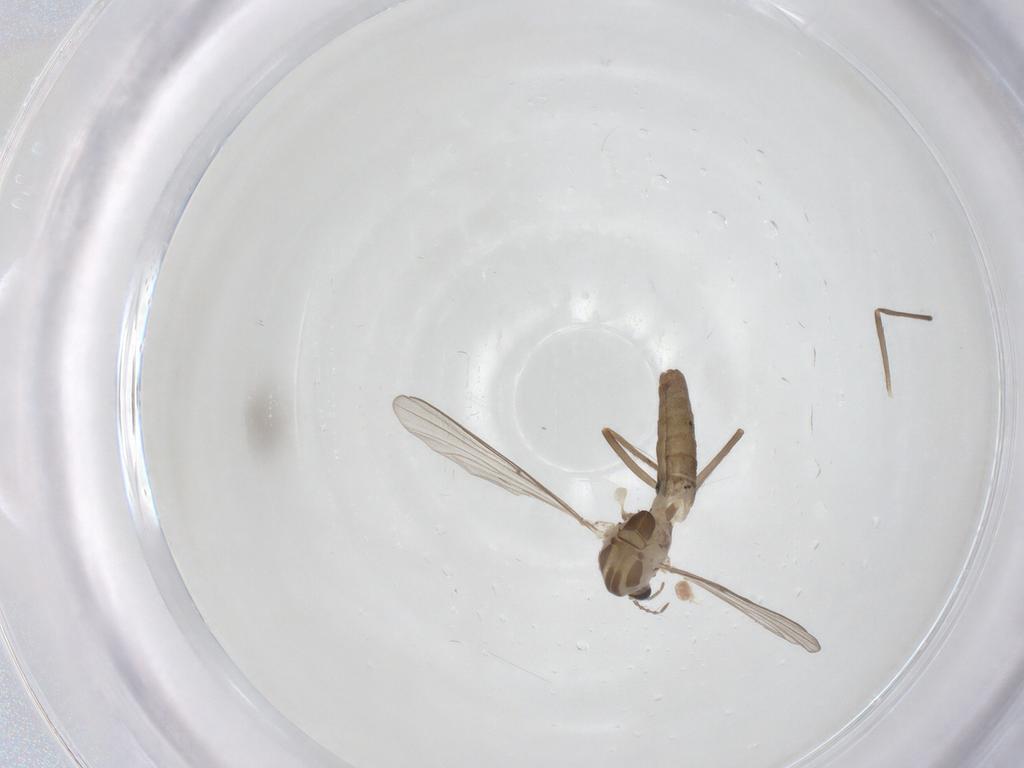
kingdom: Animalia
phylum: Arthropoda
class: Insecta
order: Diptera
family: Chironomidae
